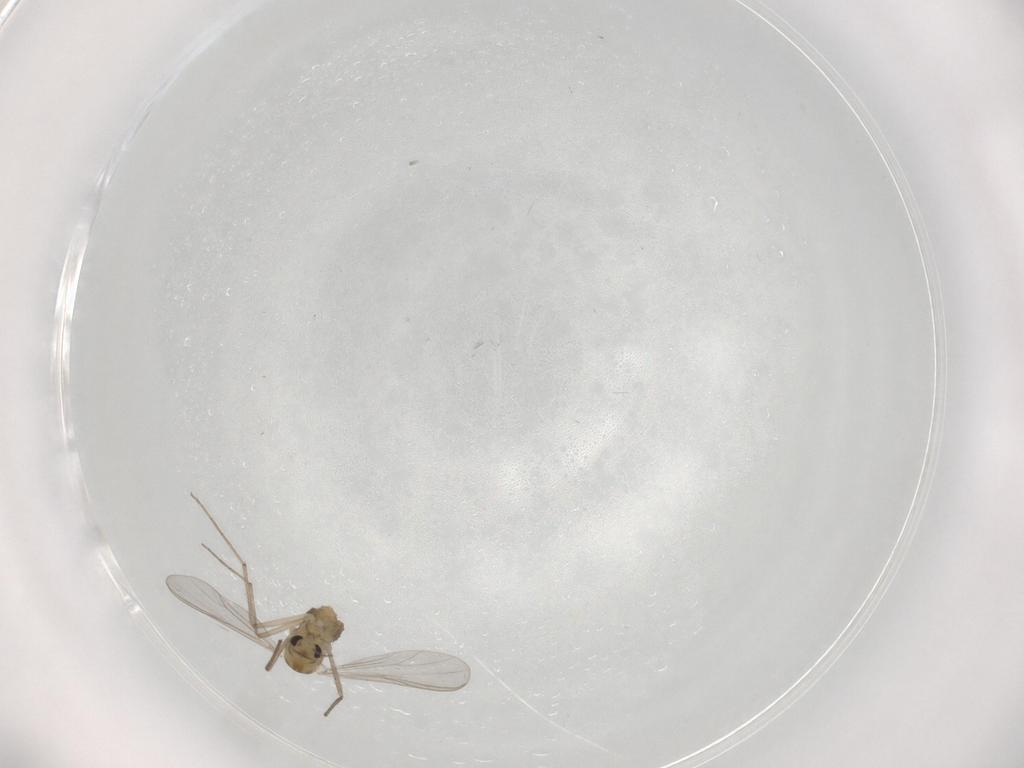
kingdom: Animalia
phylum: Arthropoda
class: Insecta
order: Diptera
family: Chironomidae
